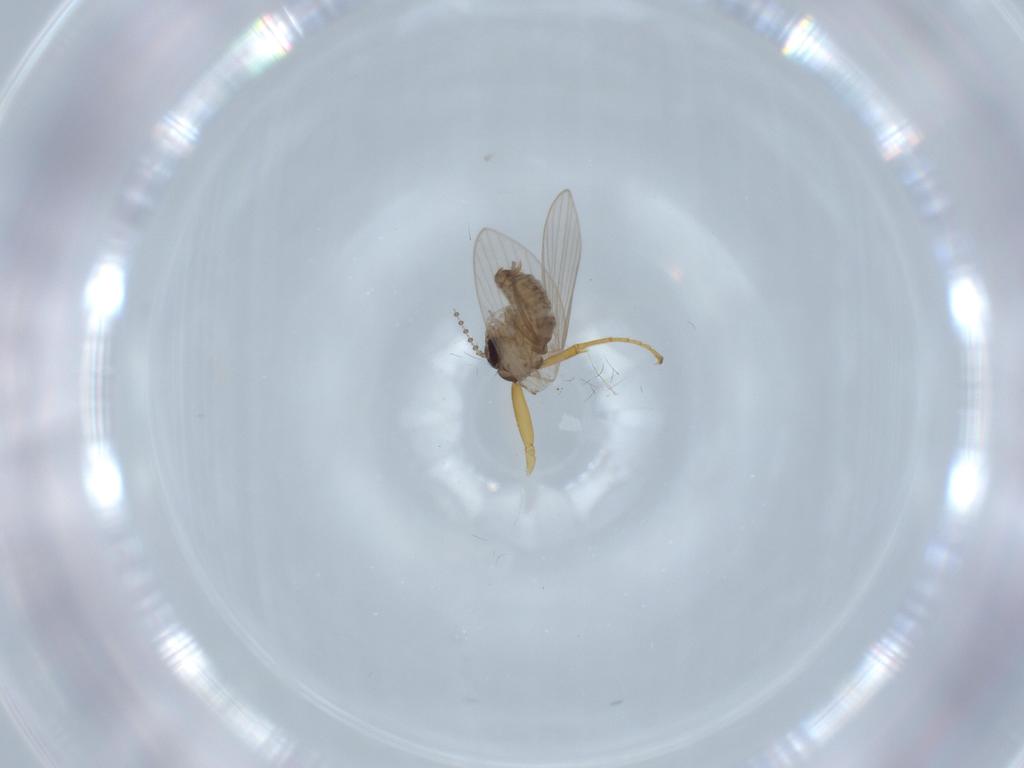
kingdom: Animalia
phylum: Arthropoda
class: Insecta
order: Diptera
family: Psychodidae
